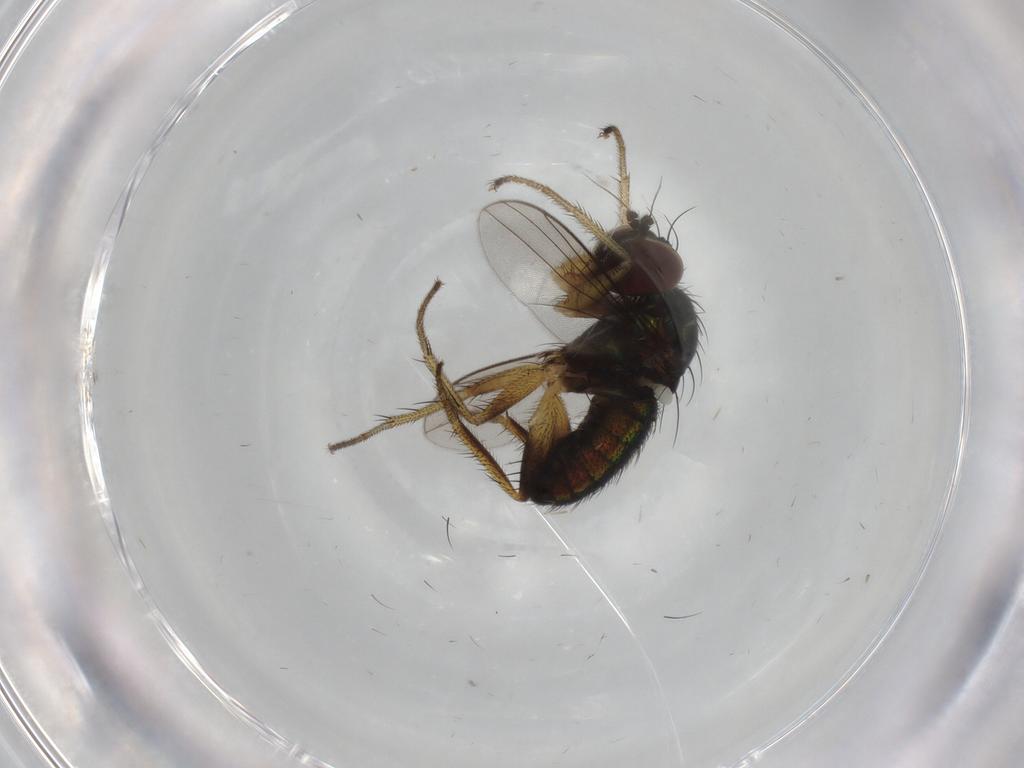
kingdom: Animalia
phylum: Arthropoda
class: Insecta
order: Diptera
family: Dolichopodidae
